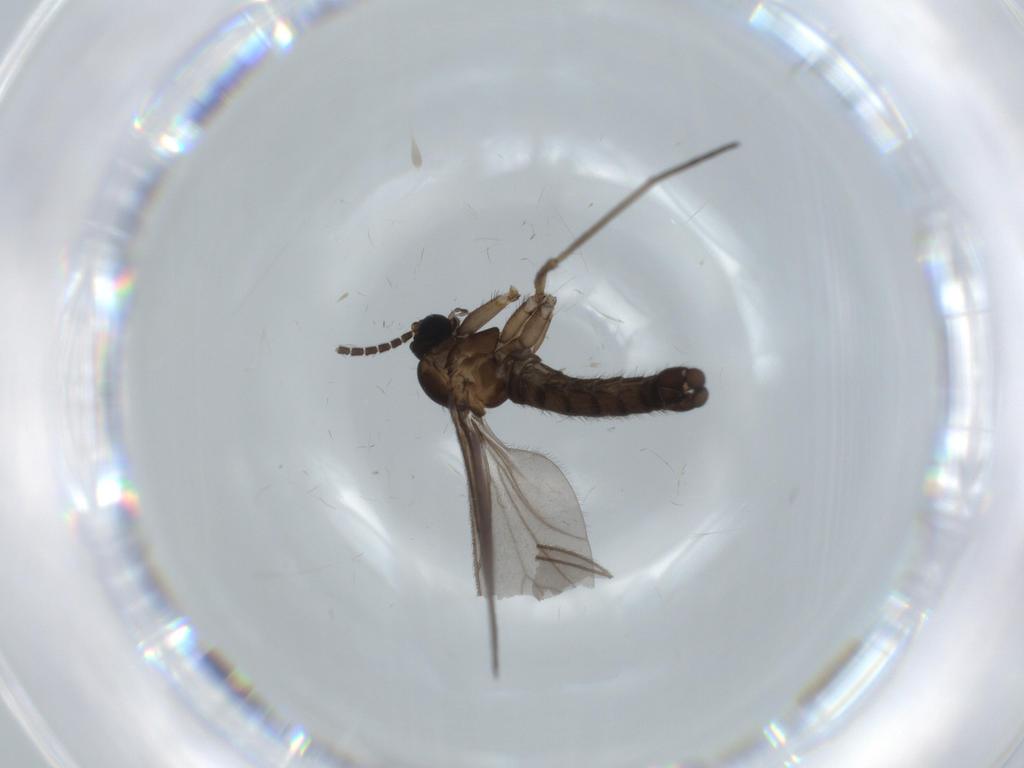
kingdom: Animalia
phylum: Arthropoda
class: Insecta
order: Diptera
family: Sciaridae
